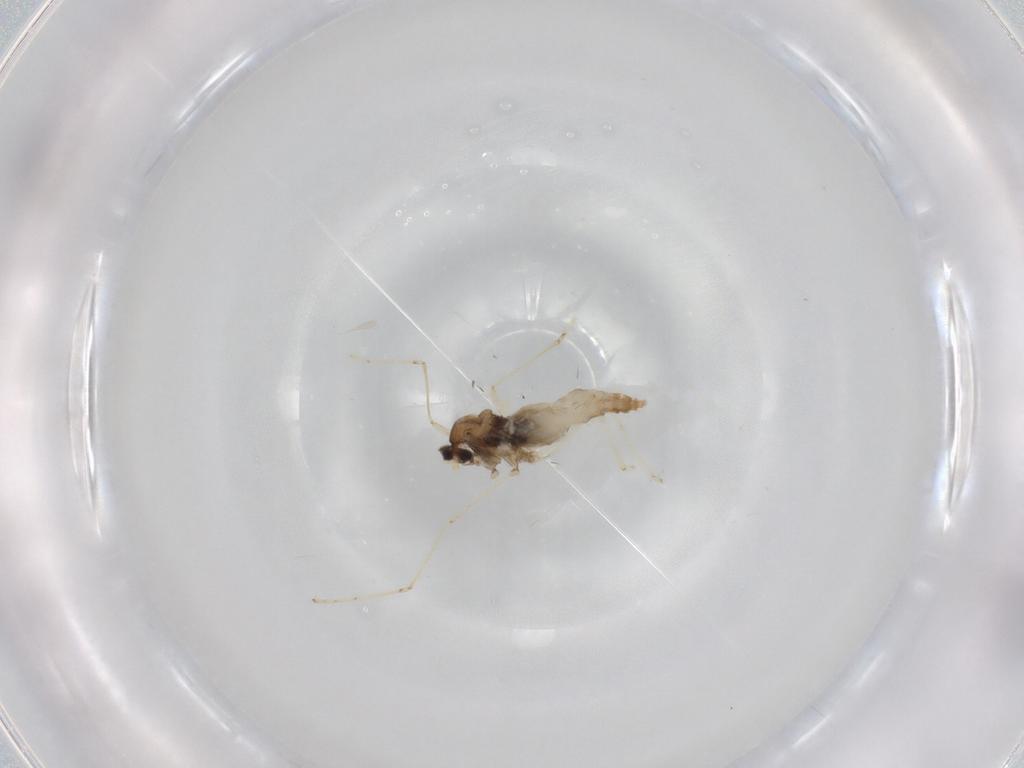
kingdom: Animalia
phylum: Arthropoda
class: Insecta
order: Diptera
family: Cecidomyiidae
